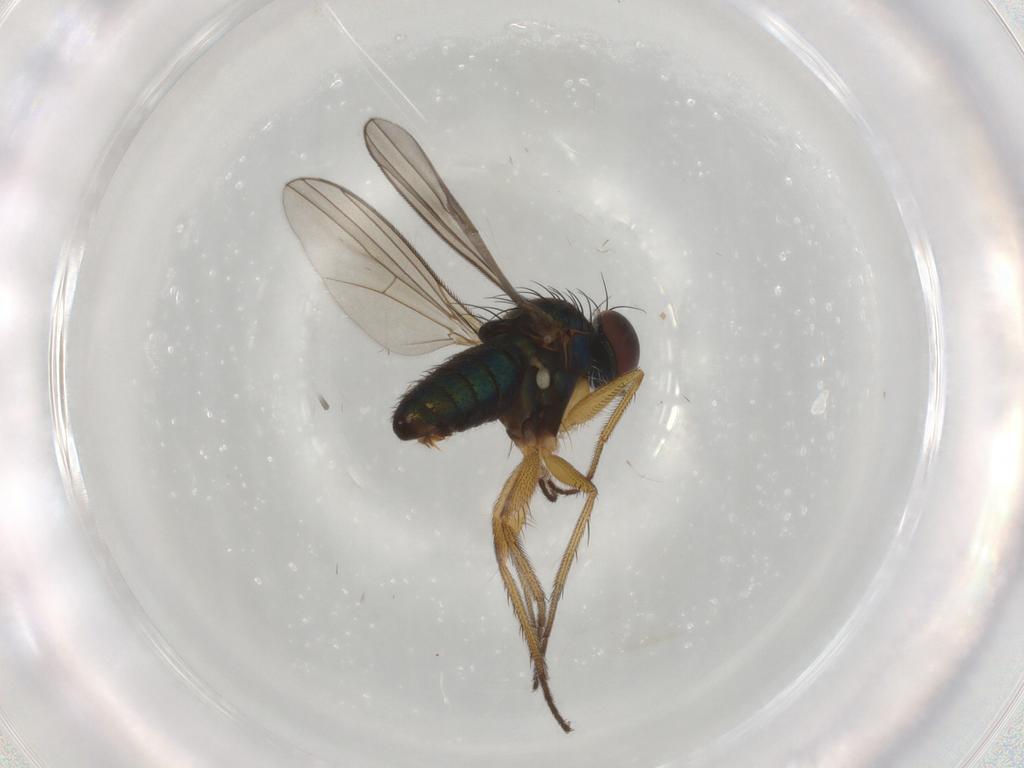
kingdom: Animalia
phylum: Arthropoda
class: Insecta
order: Diptera
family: Dolichopodidae
